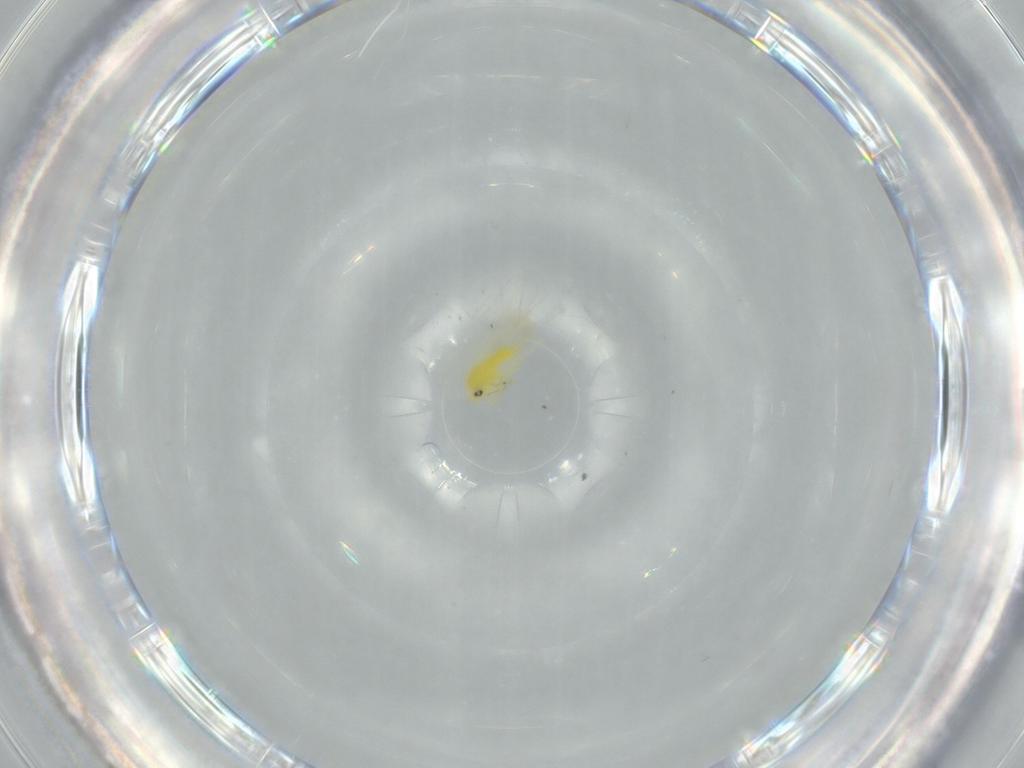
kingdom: Animalia
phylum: Arthropoda
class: Insecta
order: Hemiptera
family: Aleyrodidae
